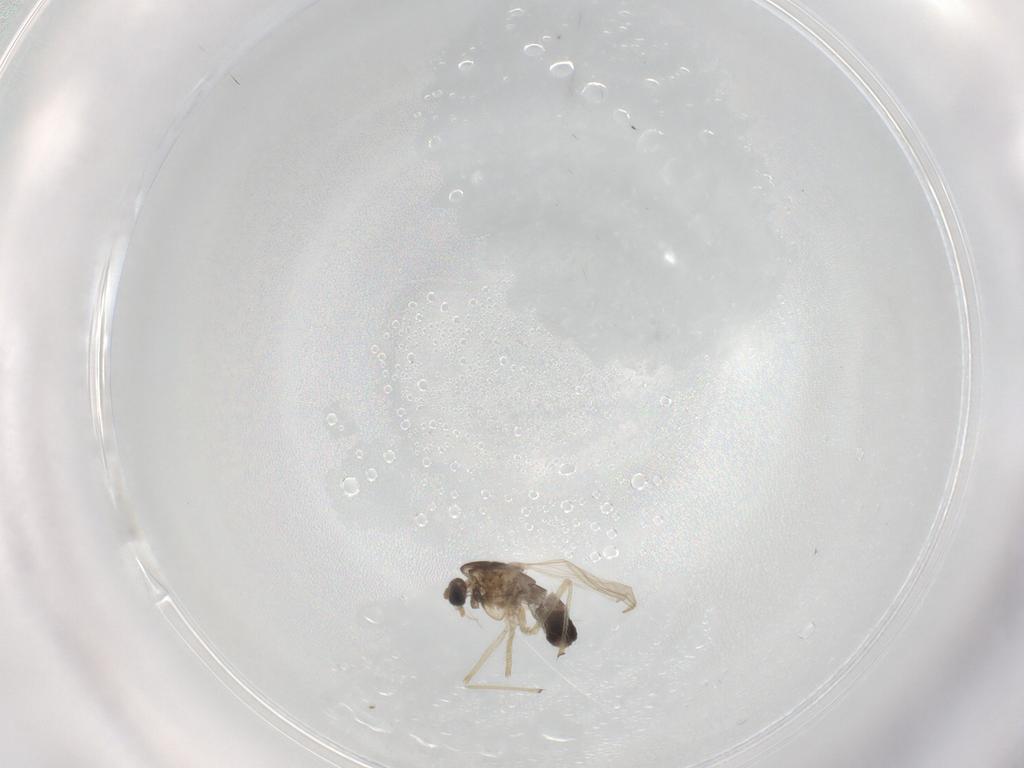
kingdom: Animalia
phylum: Arthropoda
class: Insecta
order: Diptera
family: Chironomidae
